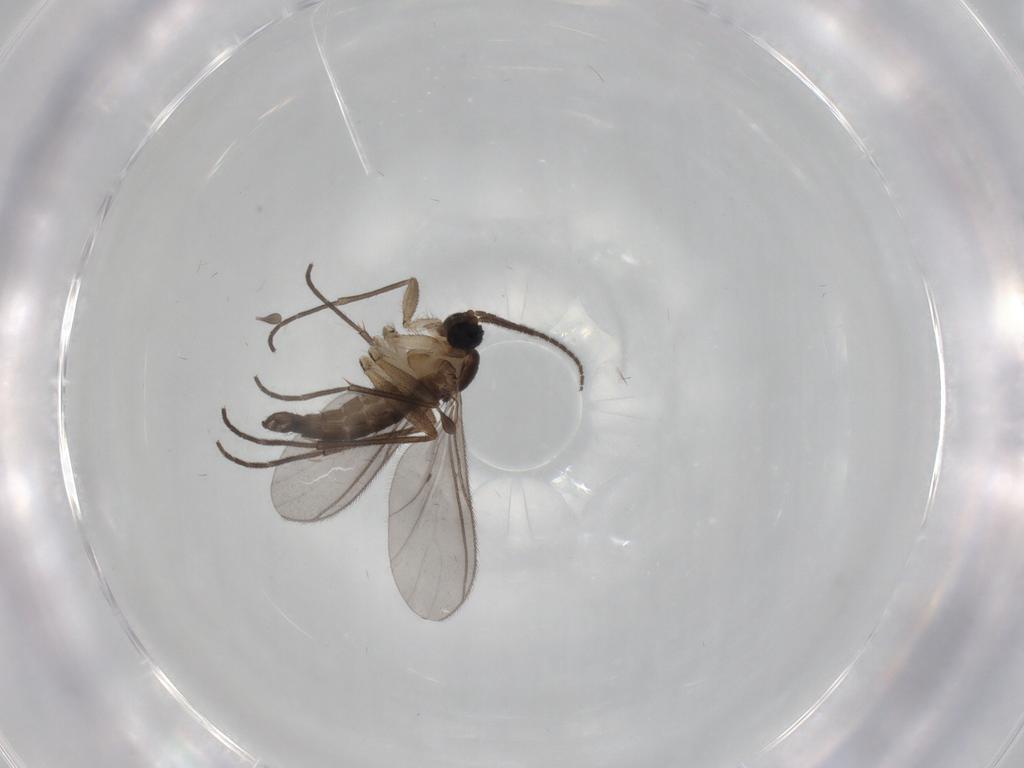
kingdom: Animalia
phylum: Arthropoda
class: Insecta
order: Diptera
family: Sciaridae
